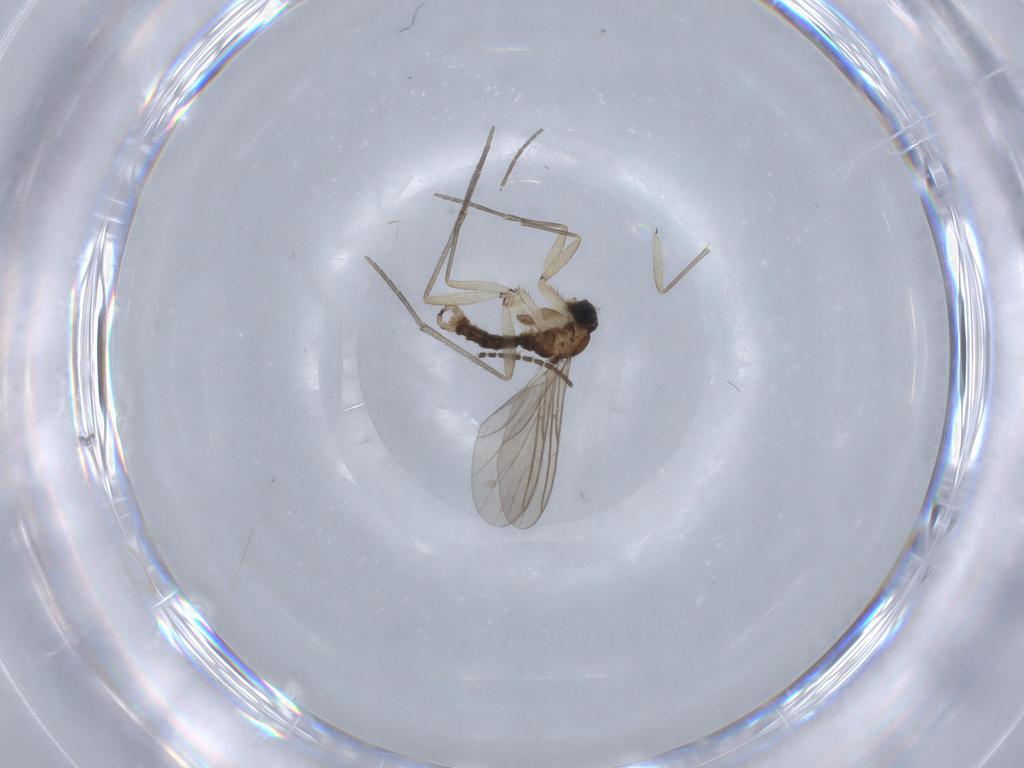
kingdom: Animalia
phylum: Arthropoda
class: Insecta
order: Diptera
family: Sciaridae
